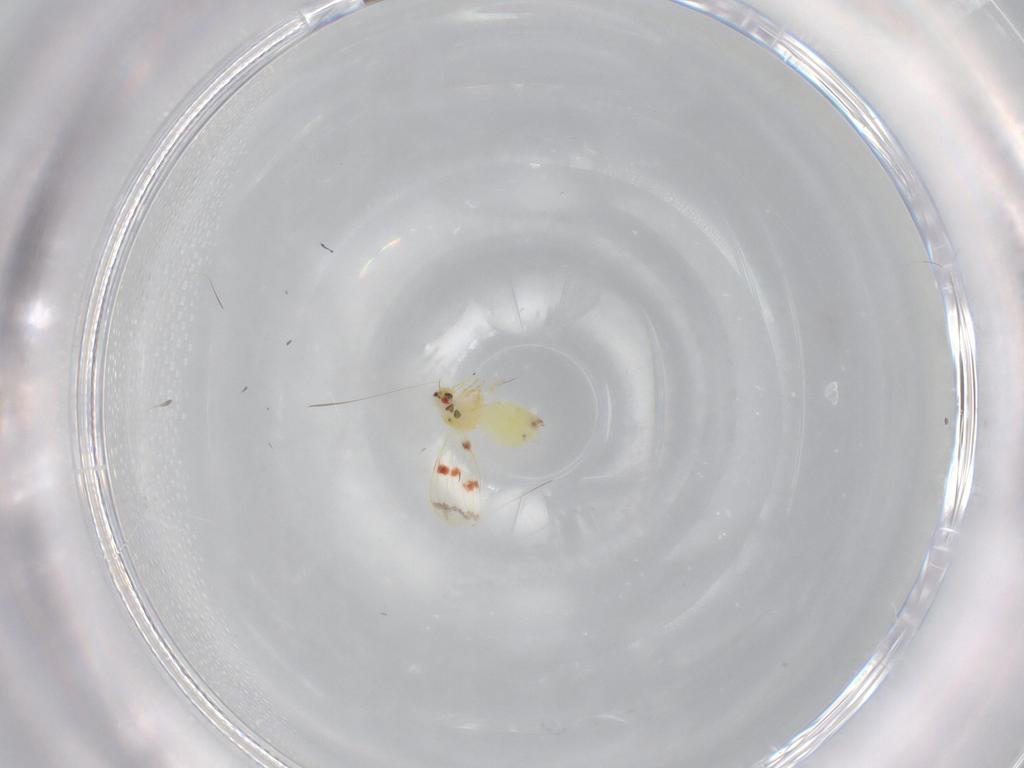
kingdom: Animalia
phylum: Arthropoda
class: Insecta
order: Hemiptera
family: Aleyrodidae
